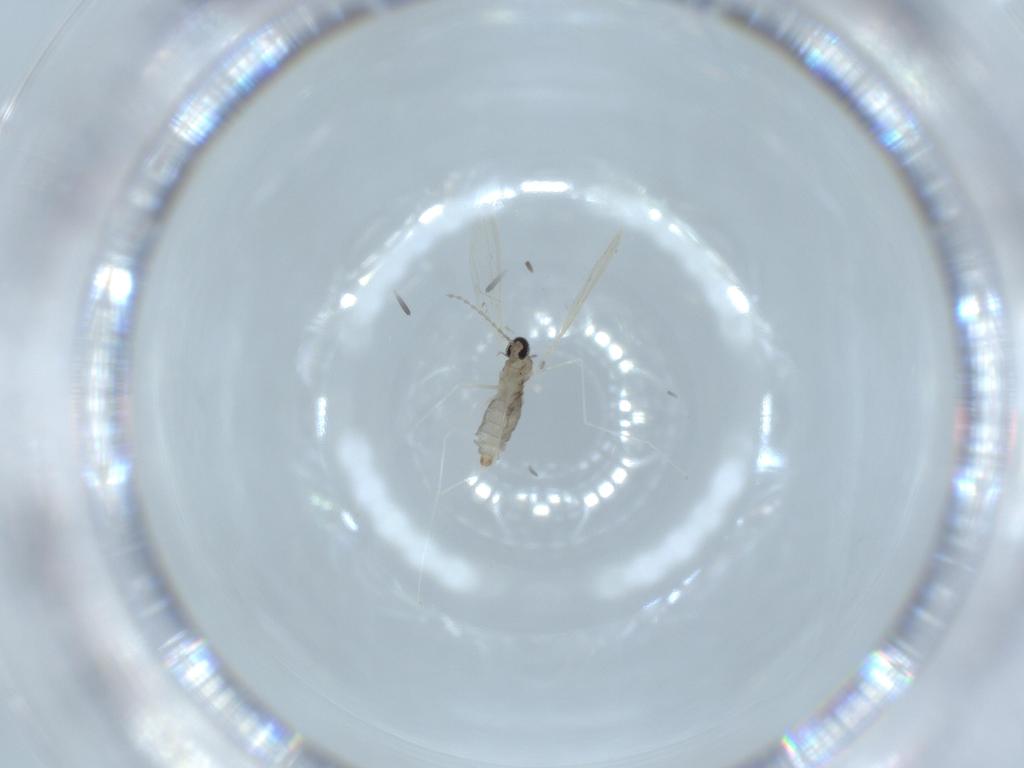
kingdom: Animalia
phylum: Arthropoda
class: Insecta
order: Diptera
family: Cecidomyiidae
